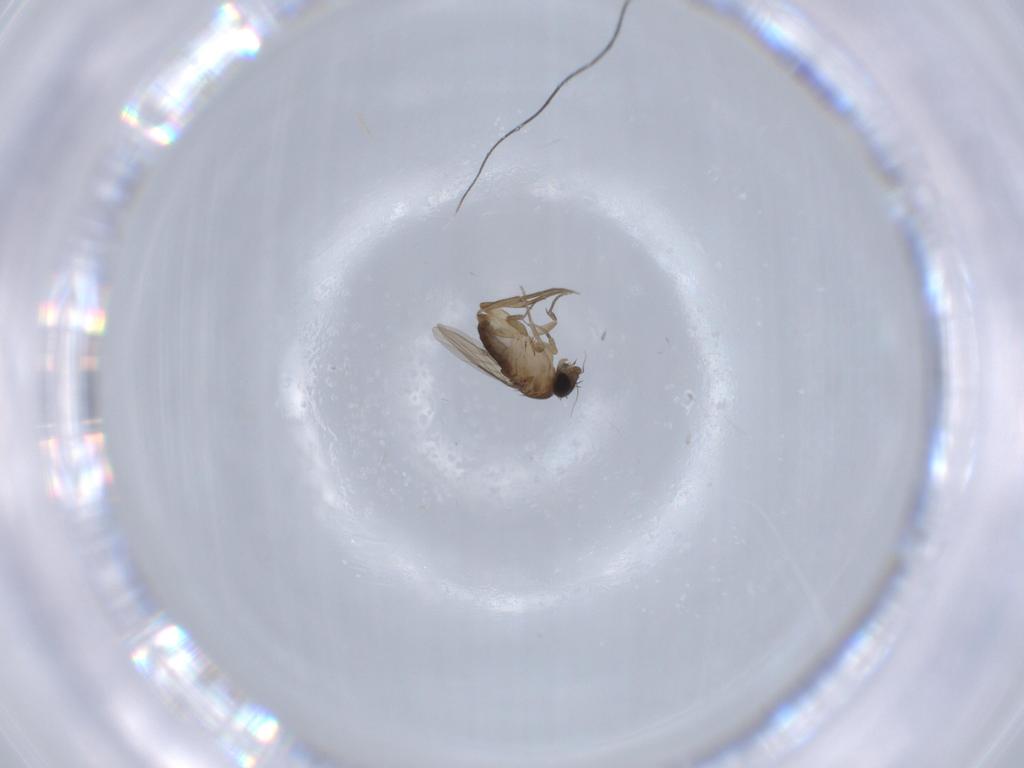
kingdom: Animalia
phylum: Arthropoda
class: Insecta
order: Diptera
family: Phoridae
